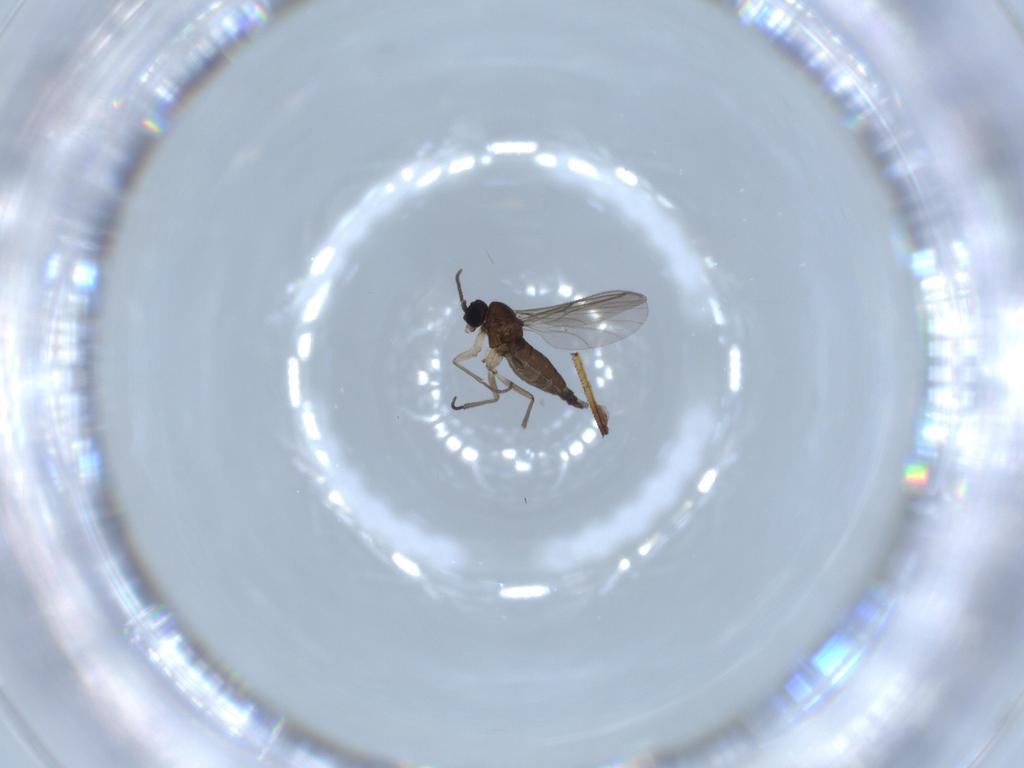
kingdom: Animalia
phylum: Arthropoda
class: Insecta
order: Diptera
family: Sciaridae
